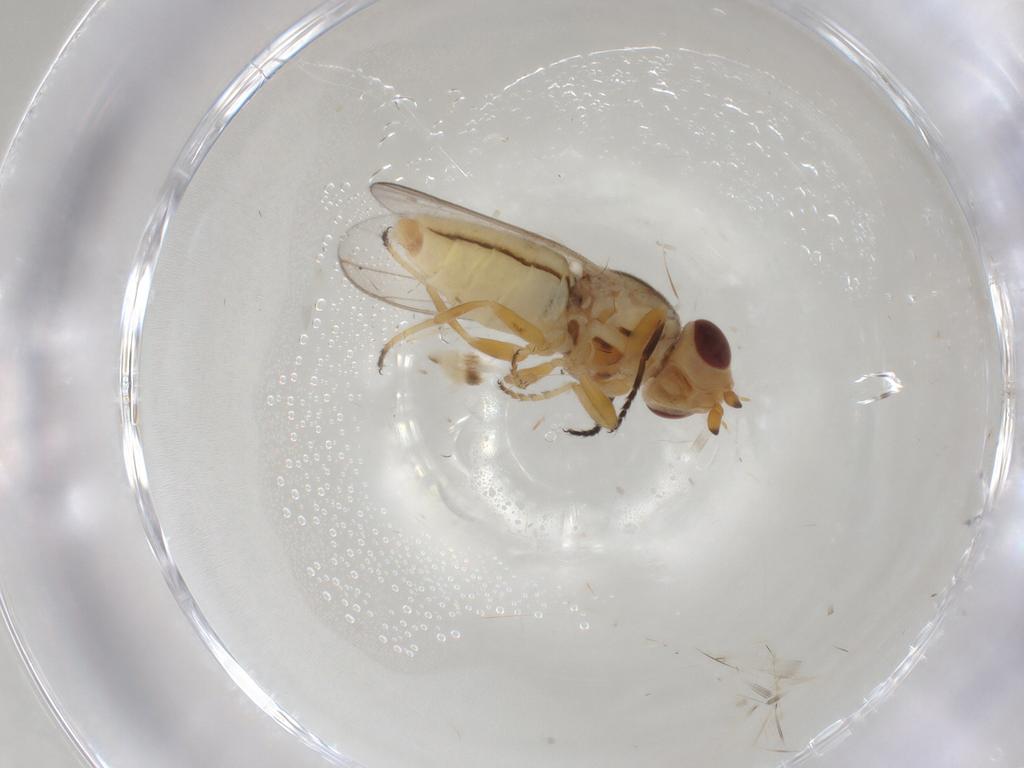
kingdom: Animalia
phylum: Arthropoda
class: Insecta
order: Diptera
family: Chloropidae
